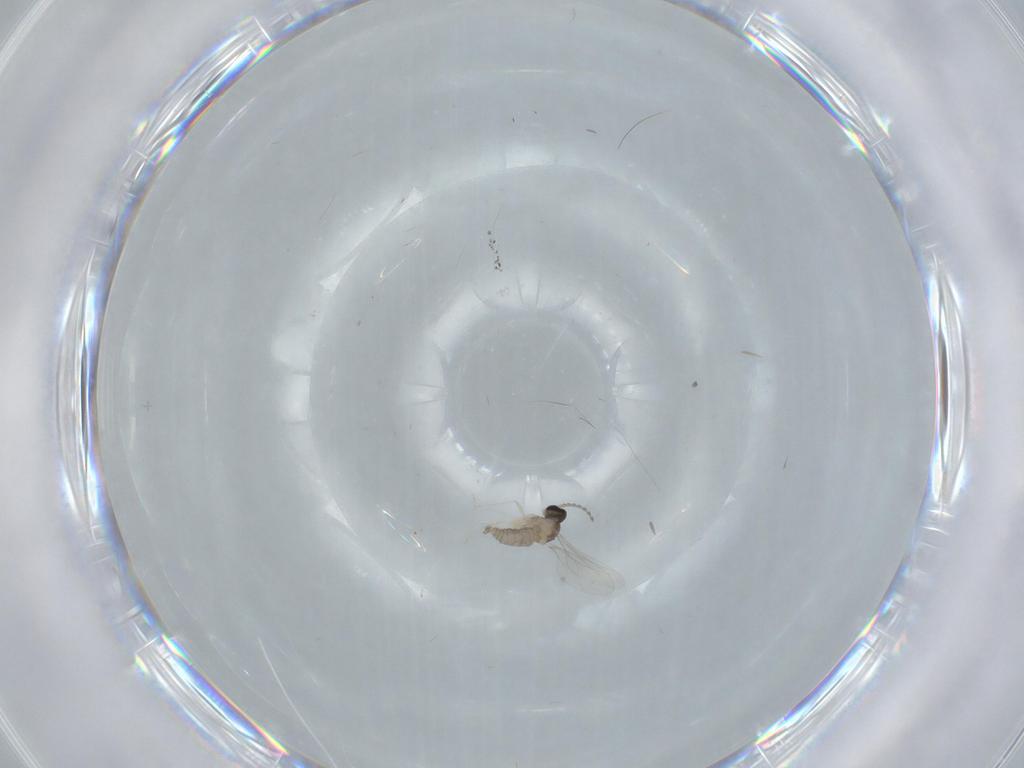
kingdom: Animalia
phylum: Arthropoda
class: Insecta
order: Diptera
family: Cecidomyiidae
